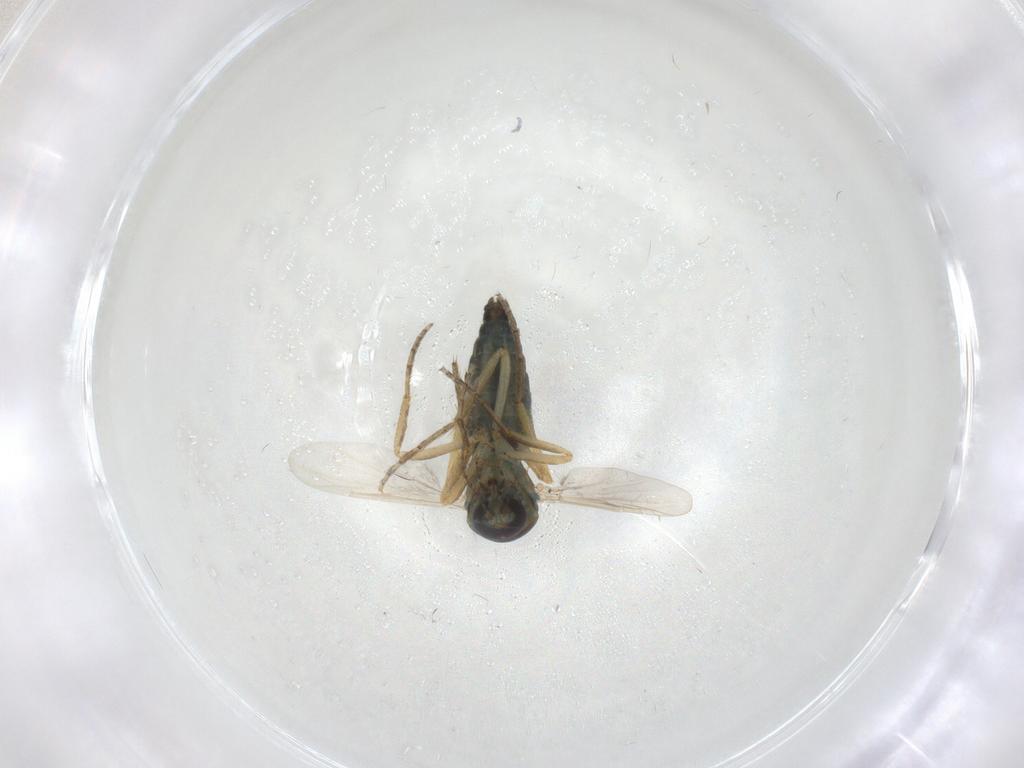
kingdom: Animalia
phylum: Arthropoda
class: Insecta
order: Diptera
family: Ceratopogonidae
